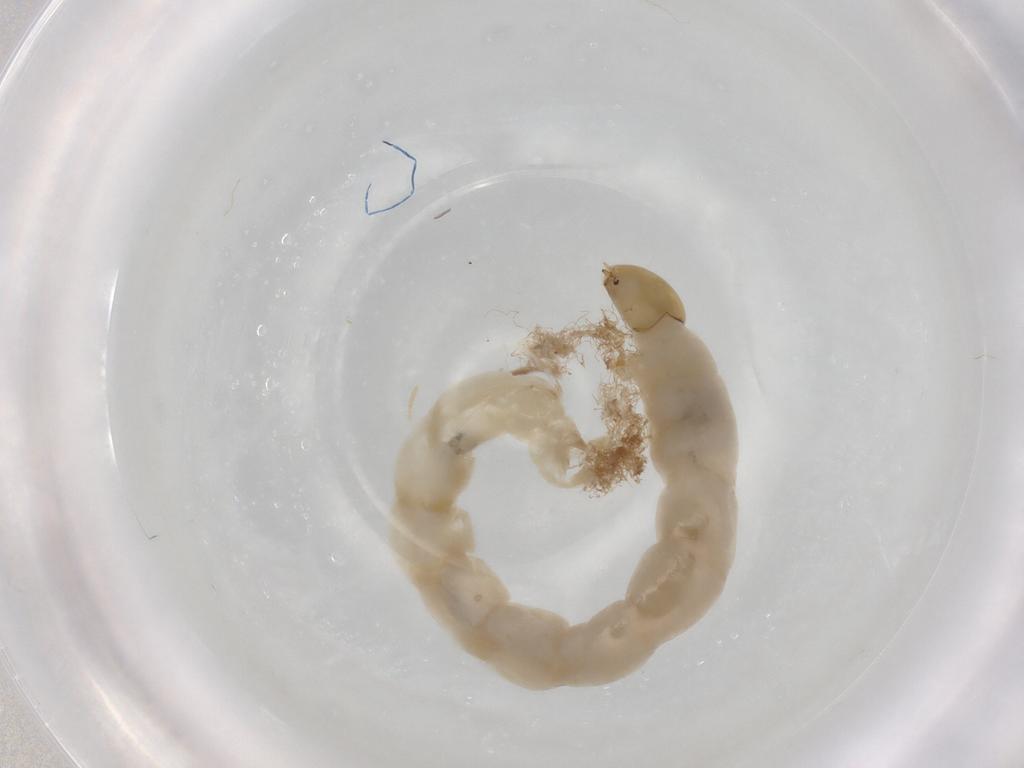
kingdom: Animalia
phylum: Arthropoda
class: Insecta
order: Diptera
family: Chironomidae
